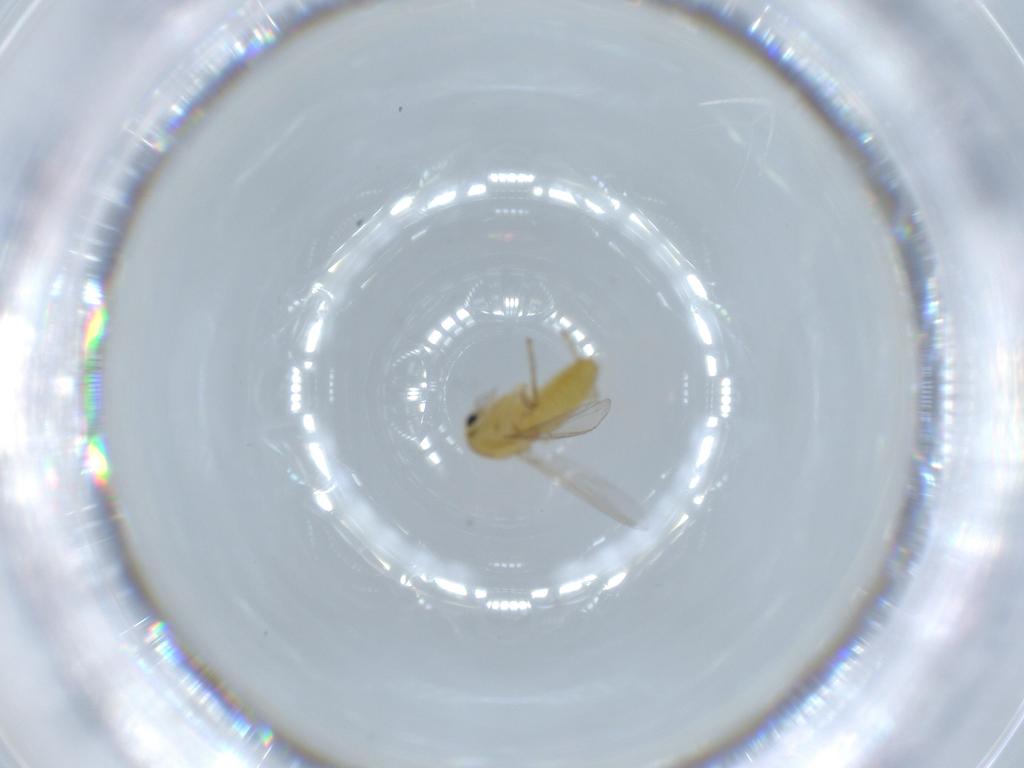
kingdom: Animalia
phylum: Arthropoda
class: Insecta
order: Diptera
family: Chironomidae
